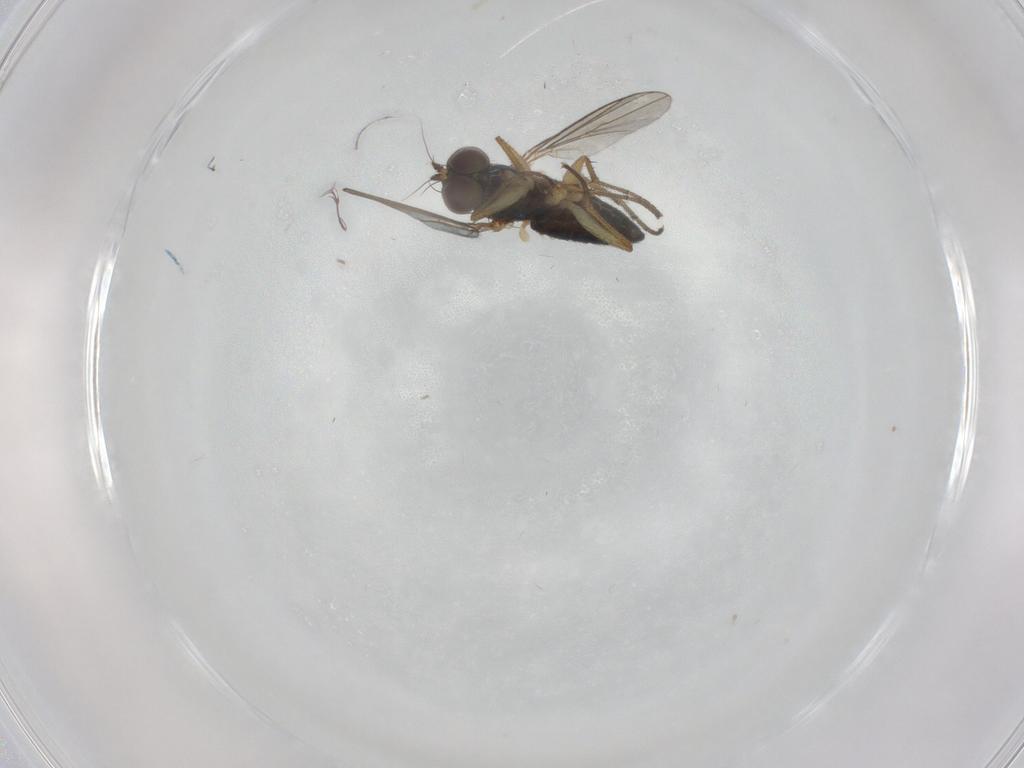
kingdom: Animalia
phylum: Arthropoda
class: Insecta
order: Diptera
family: Dolichopodidae
